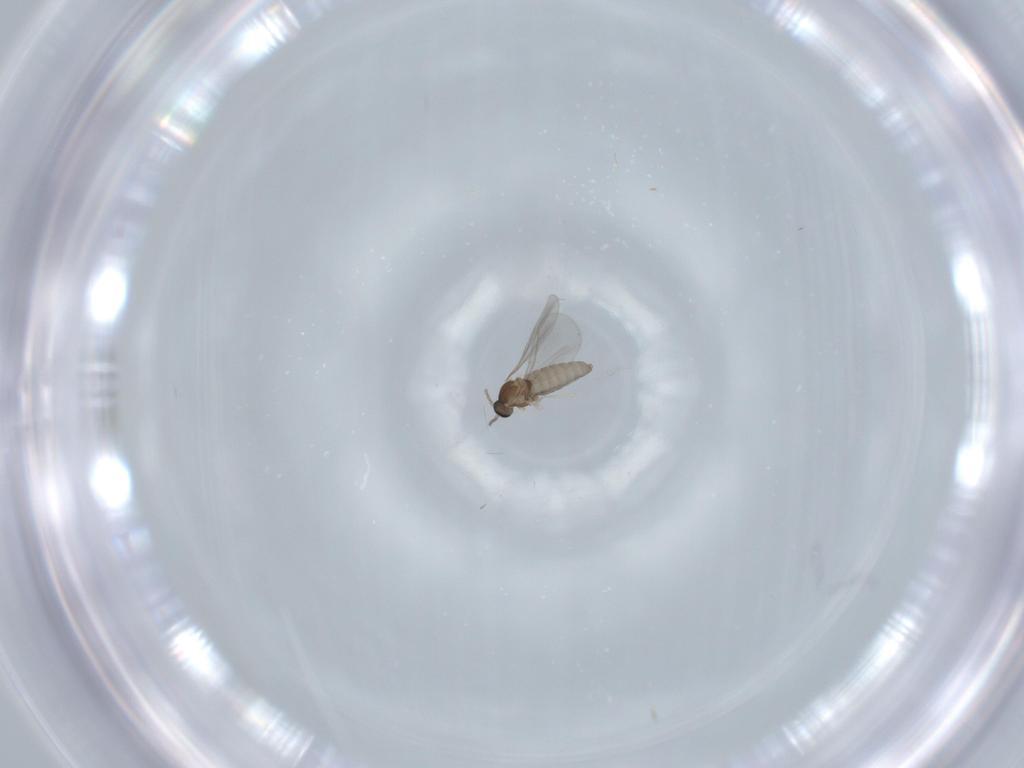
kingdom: Animalia
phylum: Arthropoda
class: Insecta
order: Diptera
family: Cecidomyiidae
